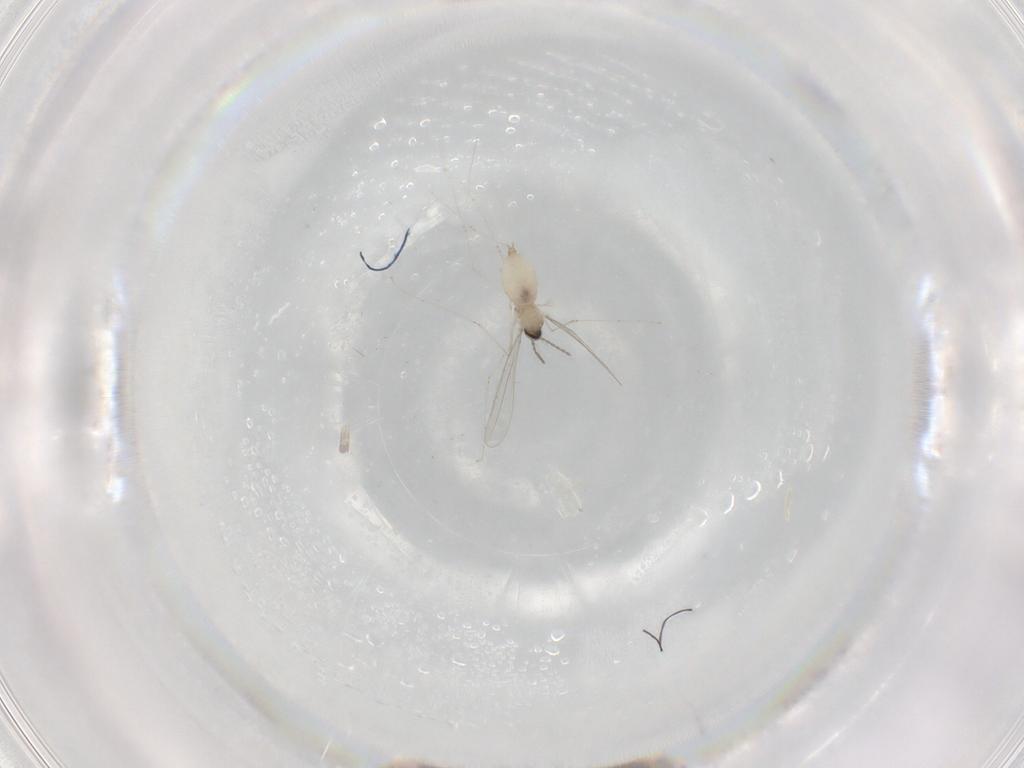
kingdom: Animalia
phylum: Arthropoda
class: Insecta
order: Diptera
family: Cecidomyiidae
